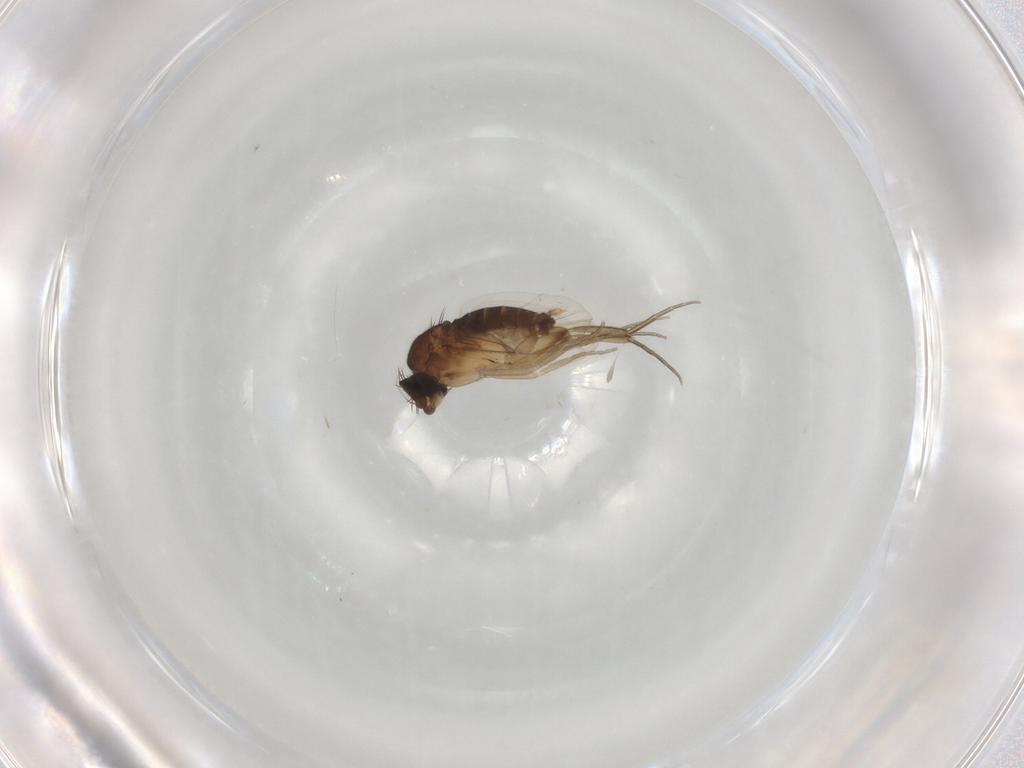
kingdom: Animalia
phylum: Arthropoda
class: Insecta
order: Diptera
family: Phoridae
